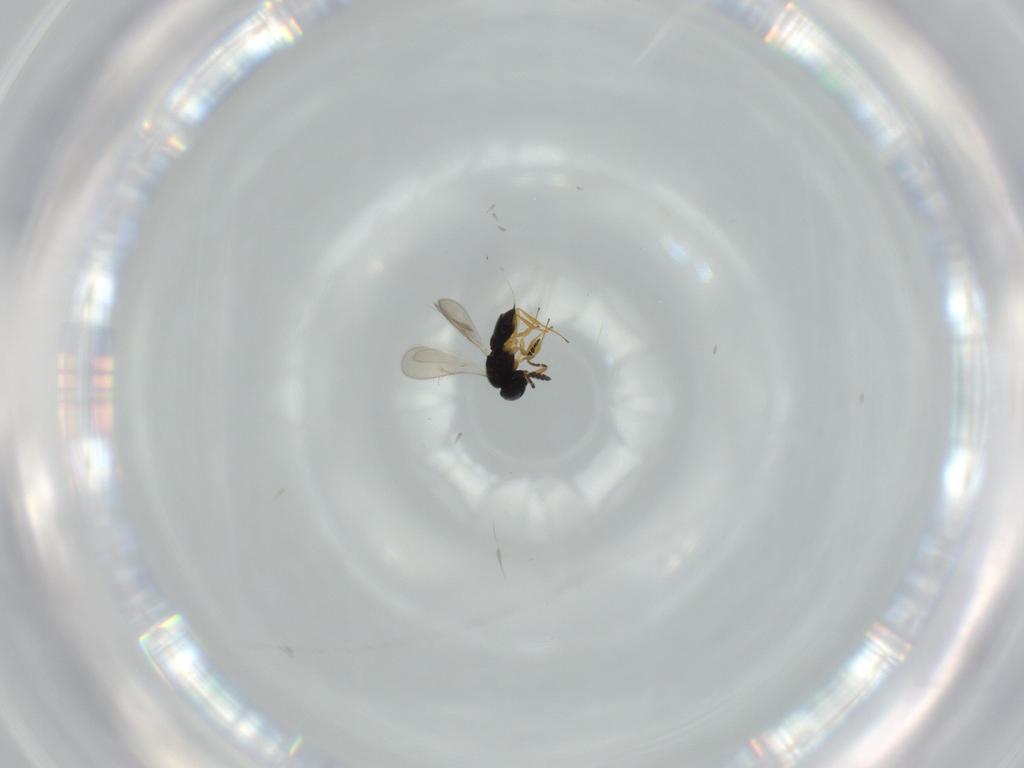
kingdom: Animalia
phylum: Arthropoda
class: Insecta
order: Hymenoptera
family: Scelionidae
